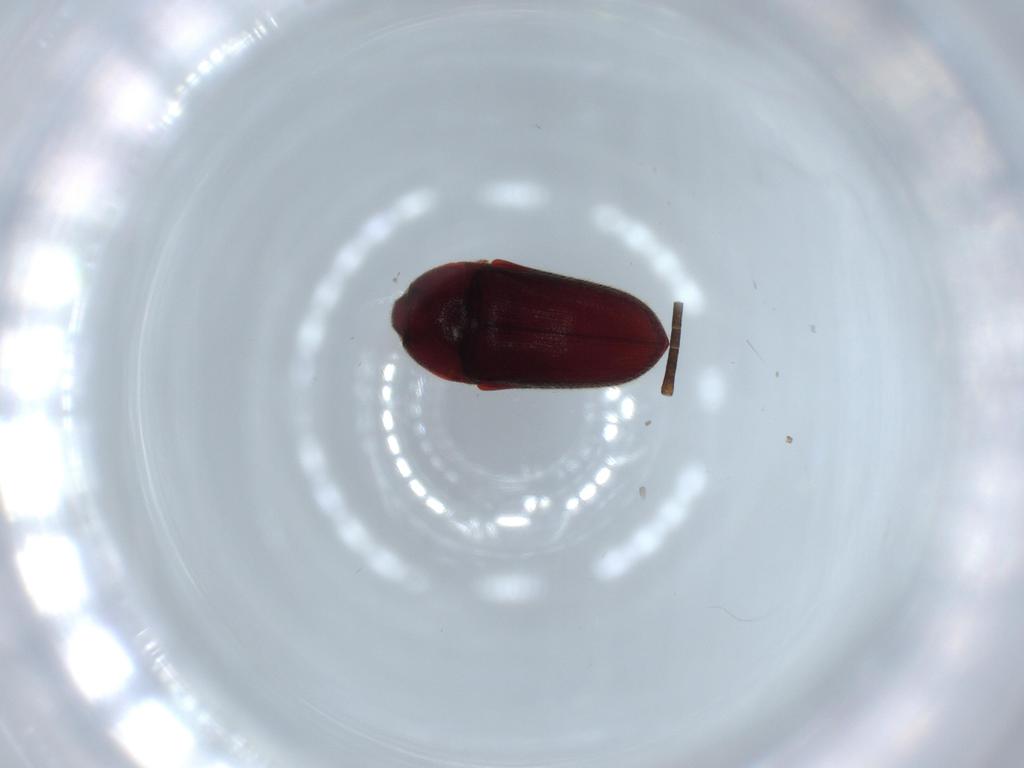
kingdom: Animalia
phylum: Arthropoda
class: Insecta
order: Coleoptera
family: Throscidae
